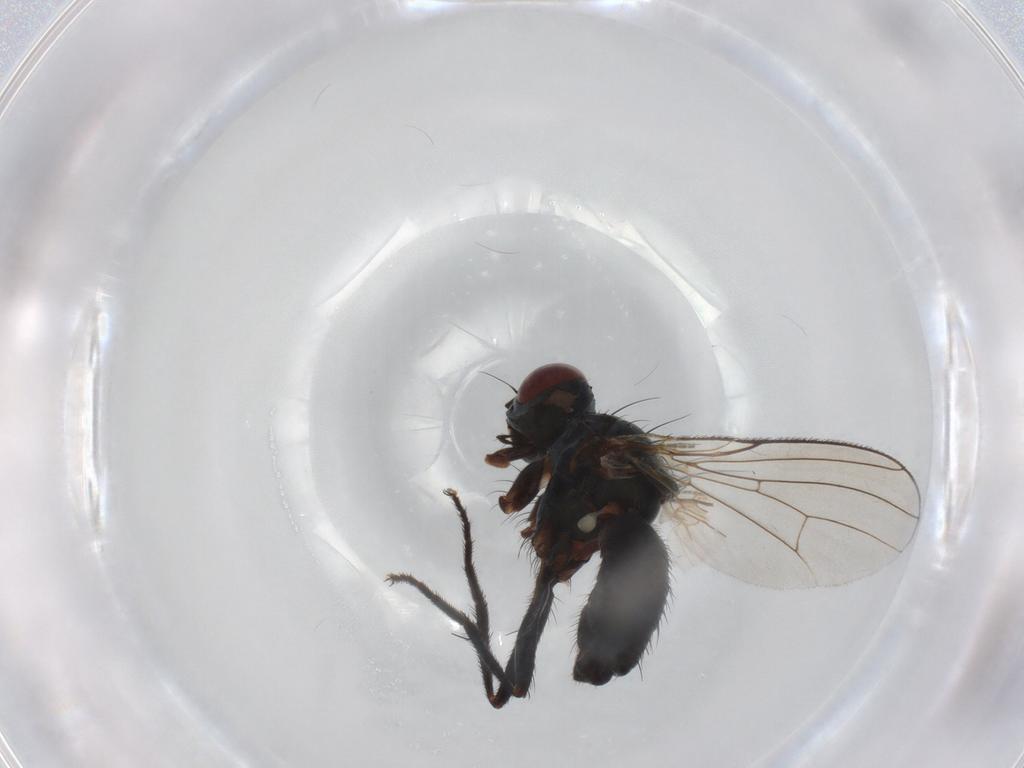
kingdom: Animalia
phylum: Arthropoda
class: Insecta
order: Diptera
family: Muscidae
